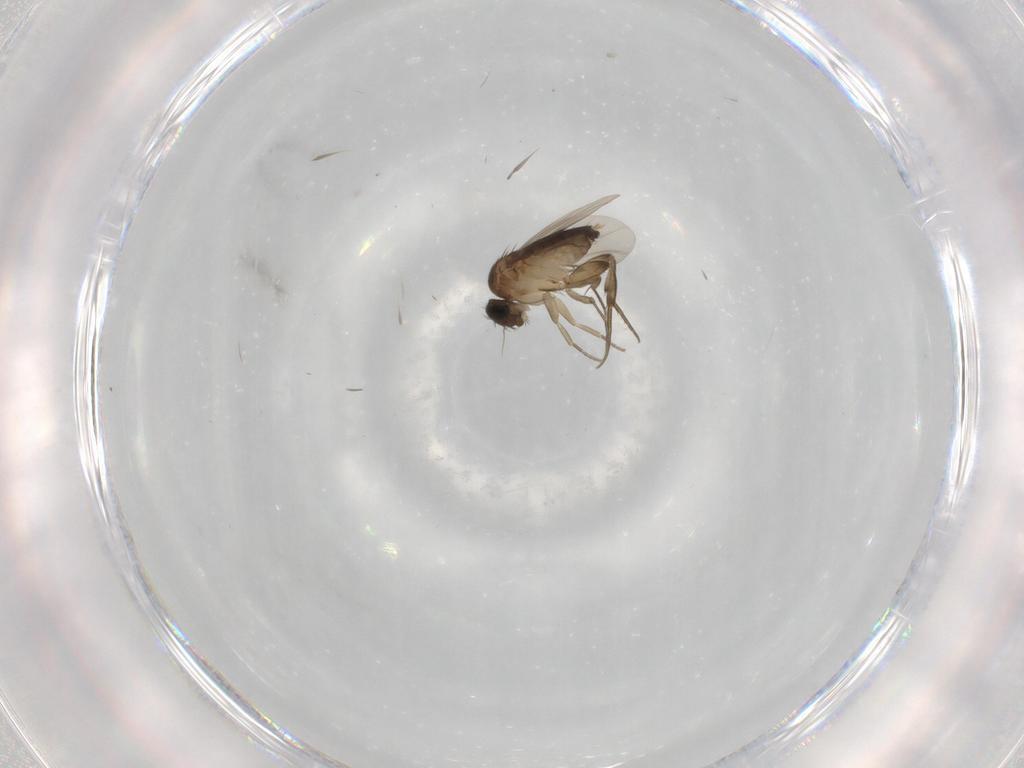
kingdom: Animalia
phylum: Arthropoda
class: Insecta
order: Diptera
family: Phoridae
